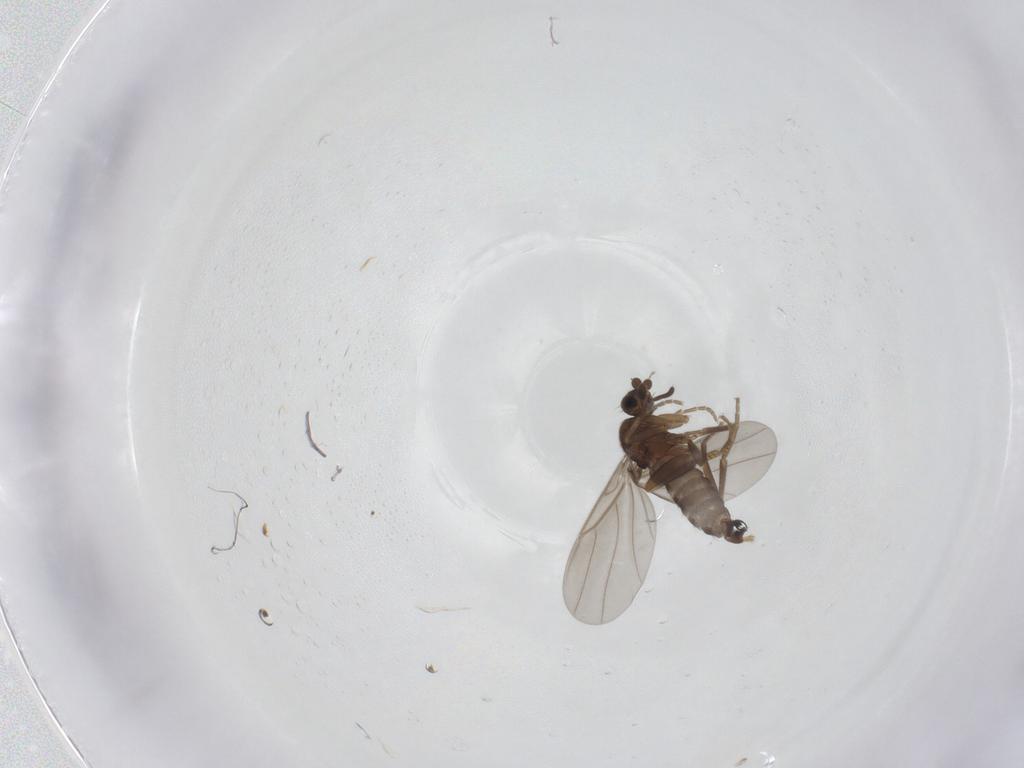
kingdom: Animalia
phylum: Arthropoda
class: Insecta
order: Diptera
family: Phoridae
